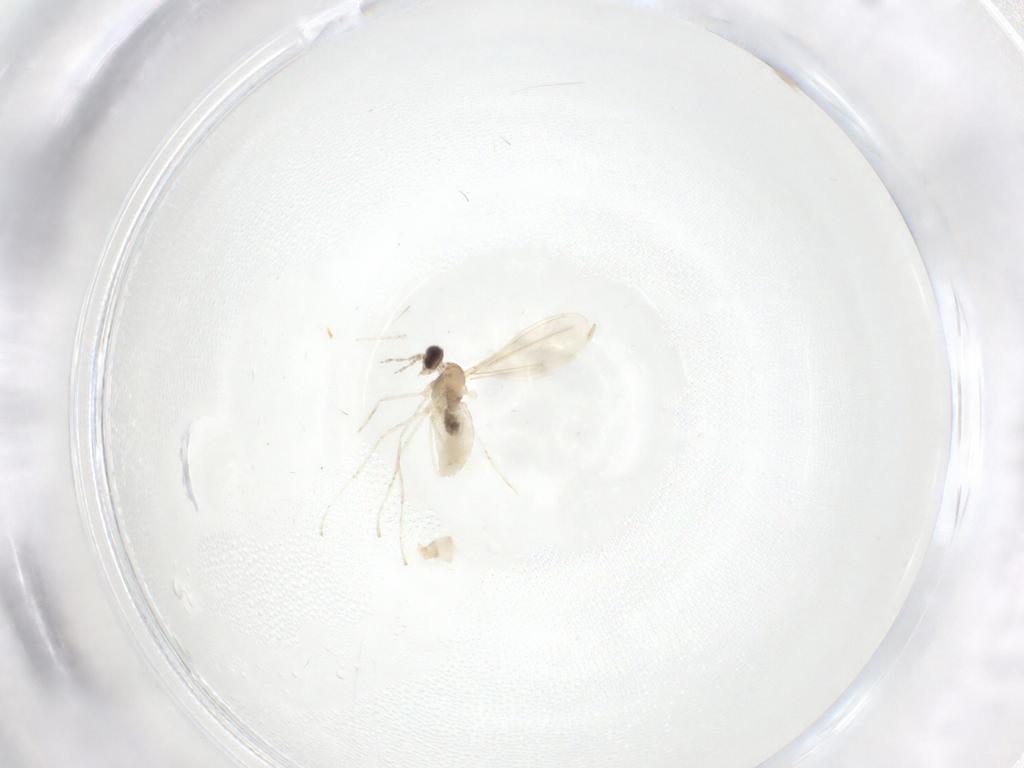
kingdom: Animalia
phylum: Arthropoda
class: Insecta
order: Diptera
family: Cecidomyiidae
